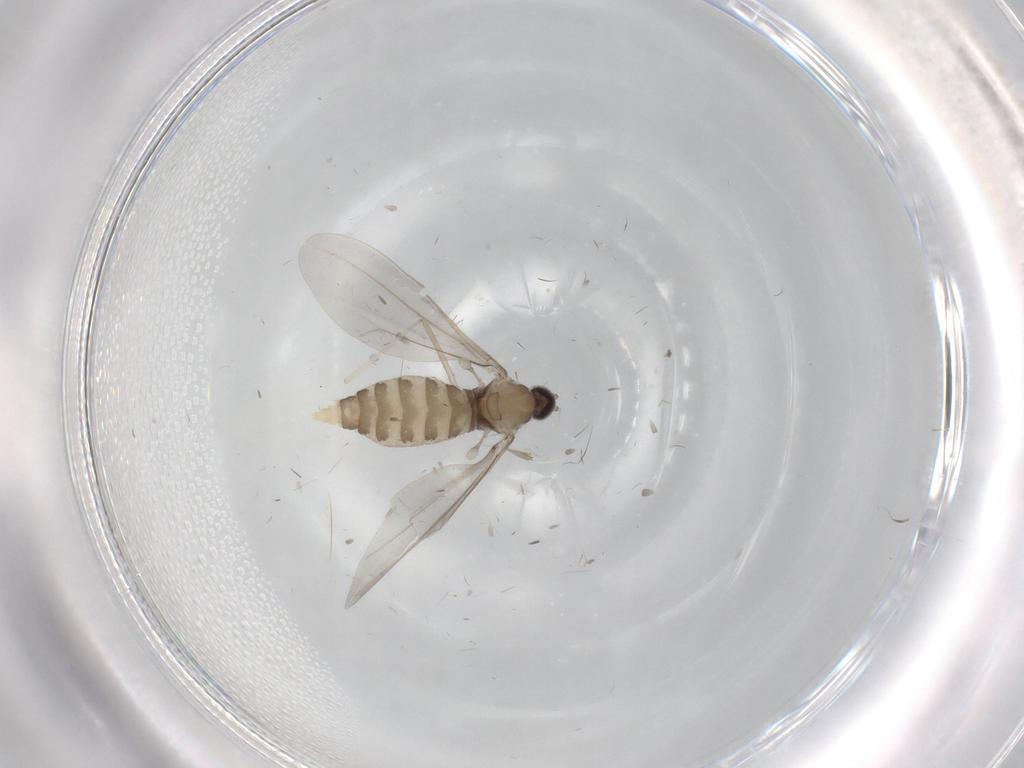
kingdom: Animalia
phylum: Arthropoda
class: Insecta
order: Diptera
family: Cecidomyiidae
